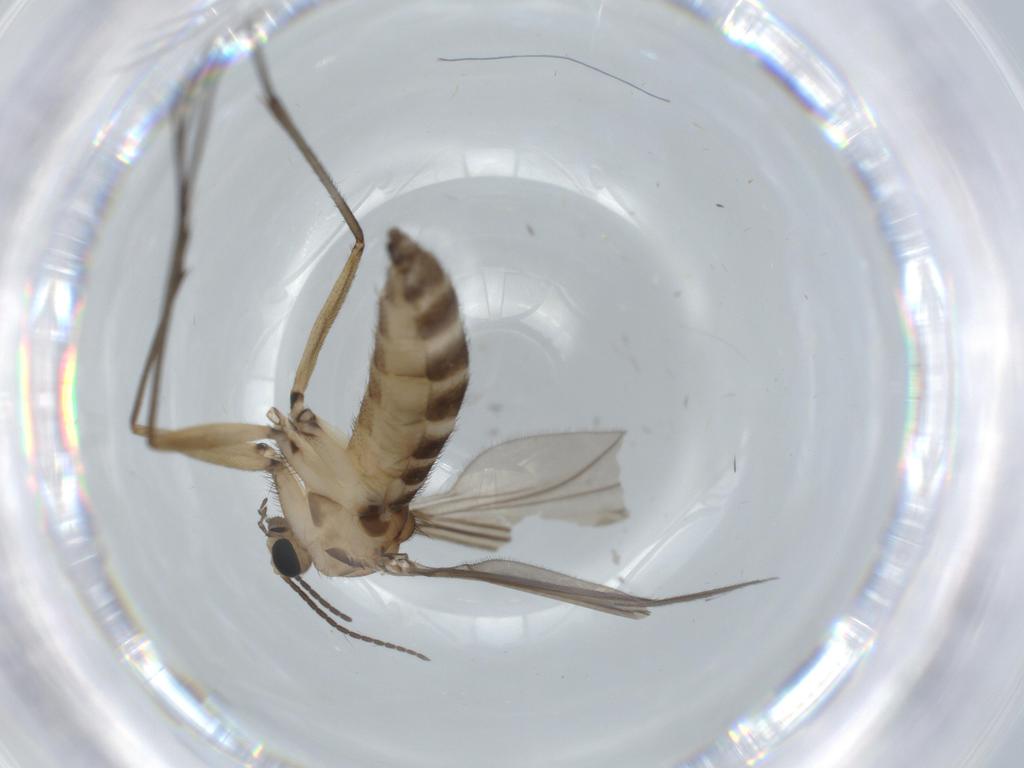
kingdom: Animalia
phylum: Arthropoda
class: Insecta
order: Diptera
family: Sciaridae
